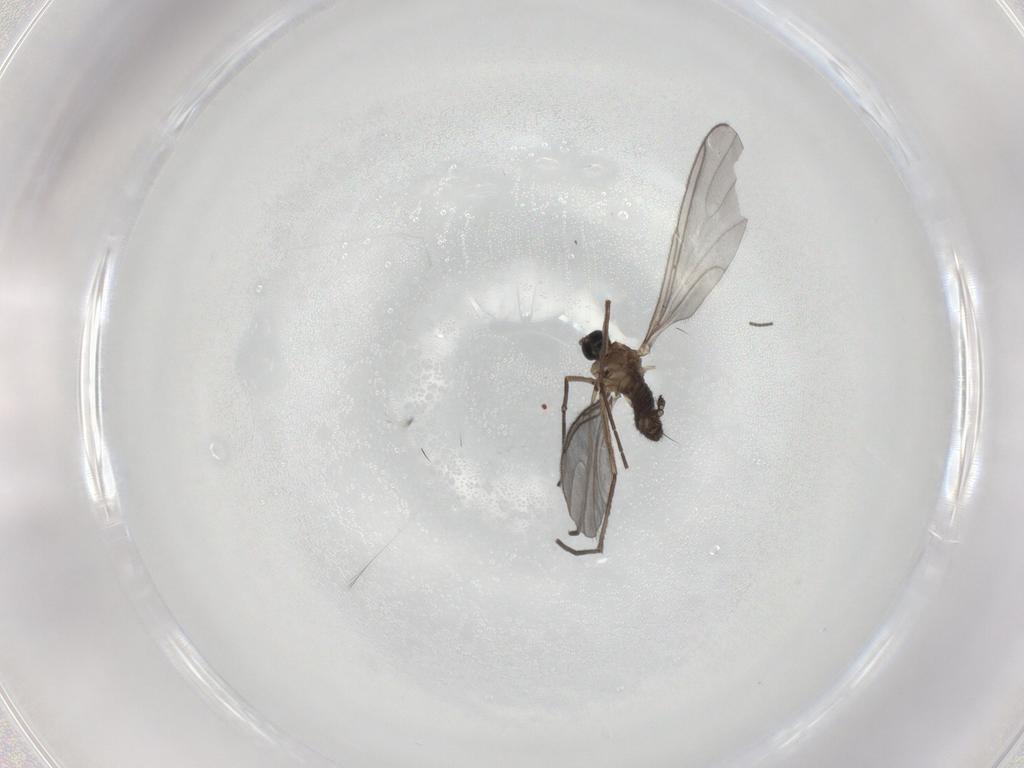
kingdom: Animalia
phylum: Arthropoda
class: Insecta
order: Diptera
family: Sciaridae
